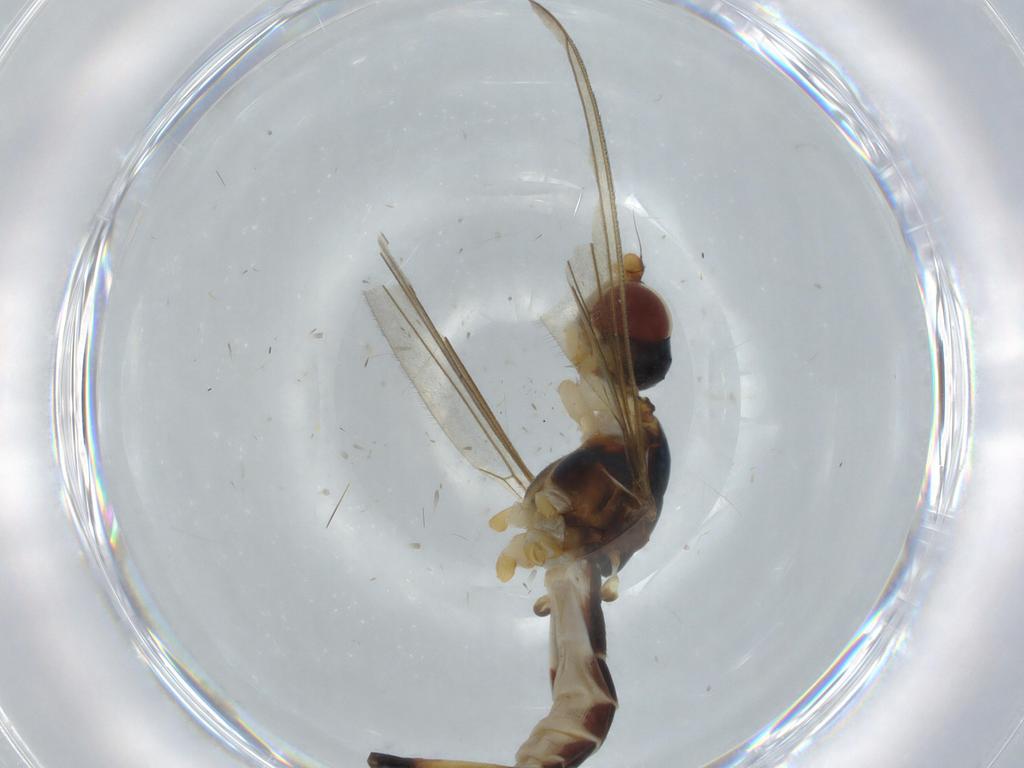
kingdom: Animalia
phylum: Arthropoda
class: Insecta
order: Diptera
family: Micropezidae
